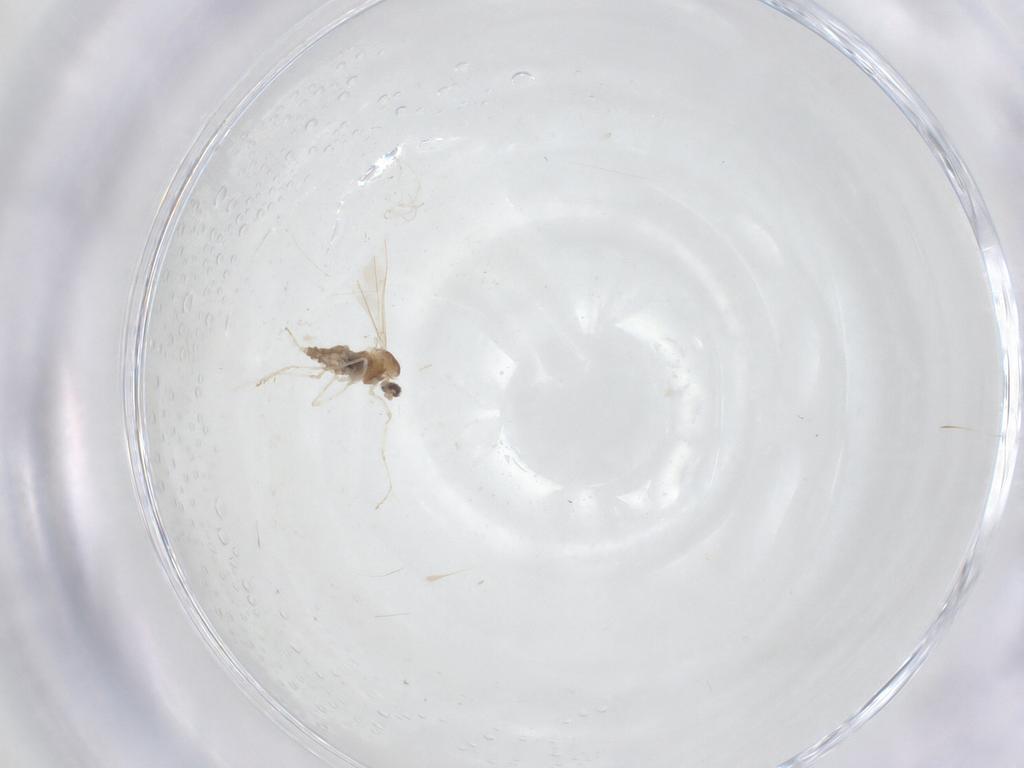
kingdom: Animalia
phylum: Arthropoda
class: Insecta
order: Diptera
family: Cecidomyiidae
